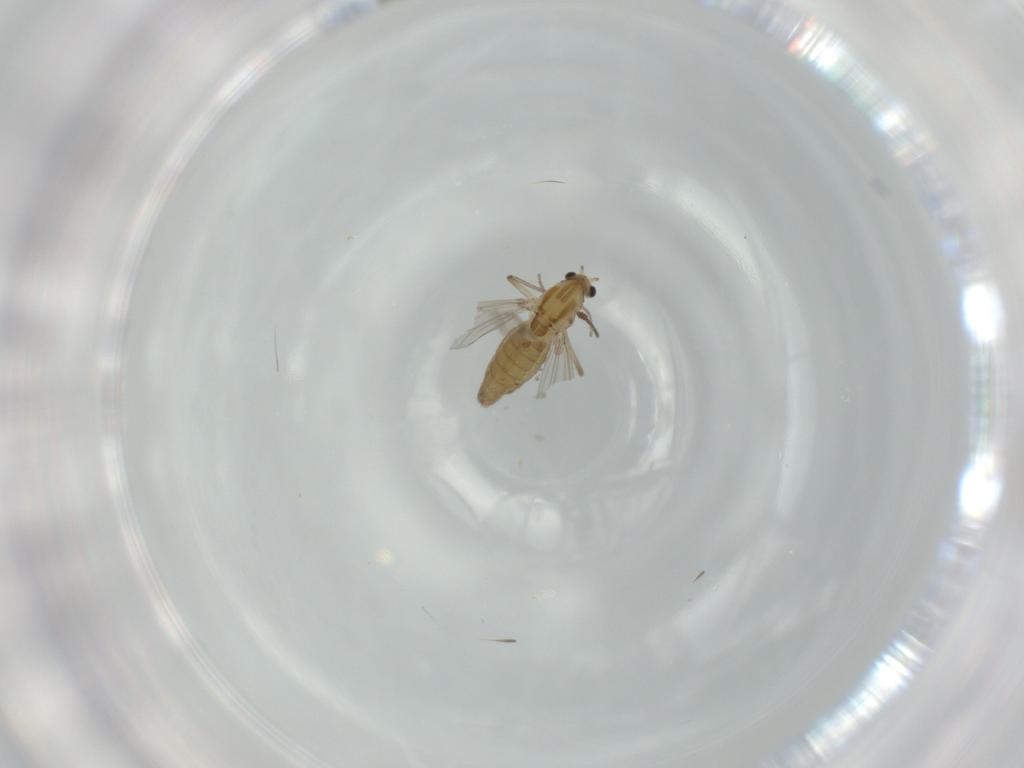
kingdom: Animalia
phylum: Arthropoda
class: Insecta
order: Diptera
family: Chironomidae
